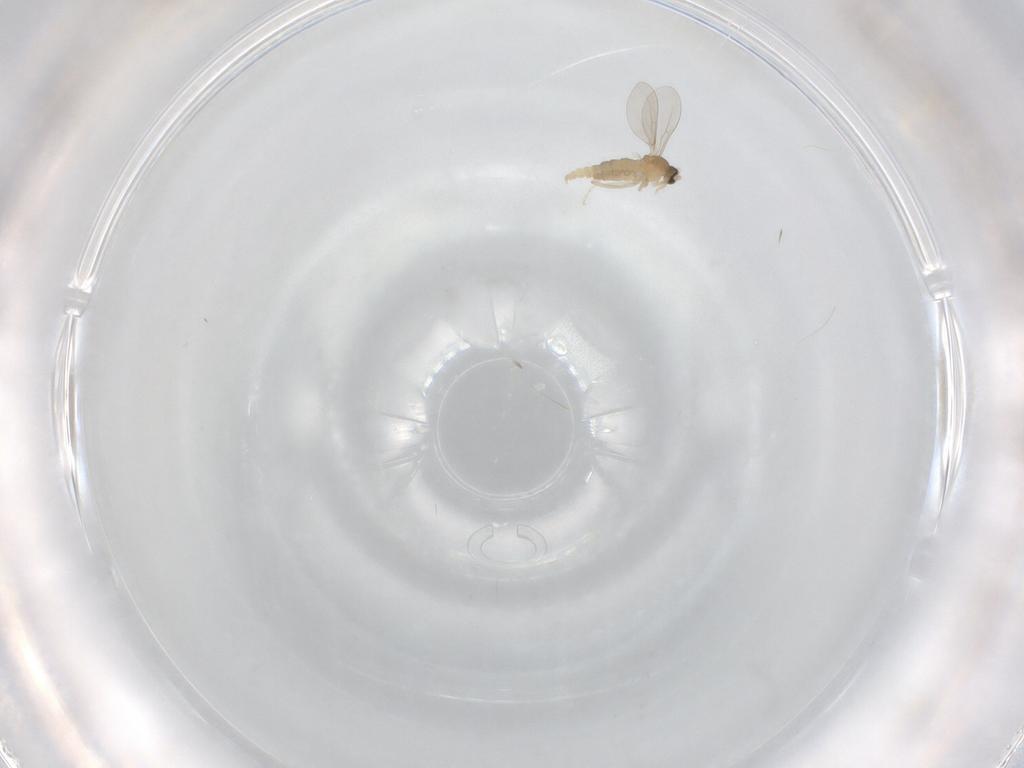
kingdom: Animalia
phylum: Arthropoda
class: Insecta
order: Diptera
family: Cecidomyiidae
